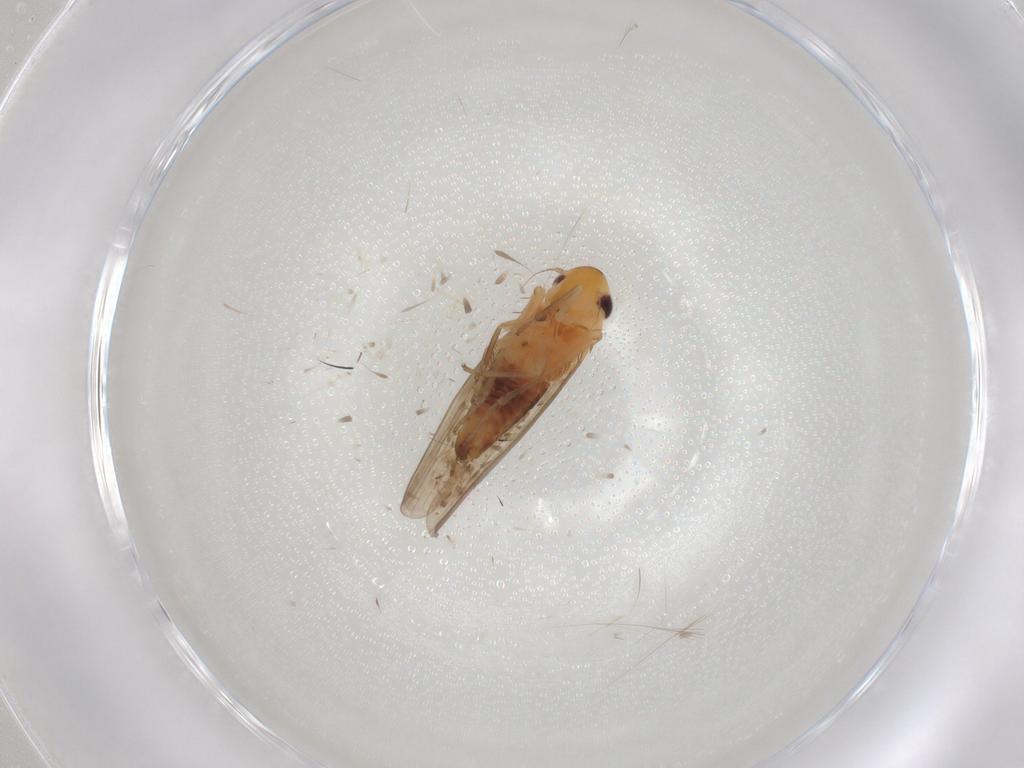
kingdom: Animalia
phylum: Arthropoda
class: Insecta
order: Hemiptera
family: Cicadellidae
